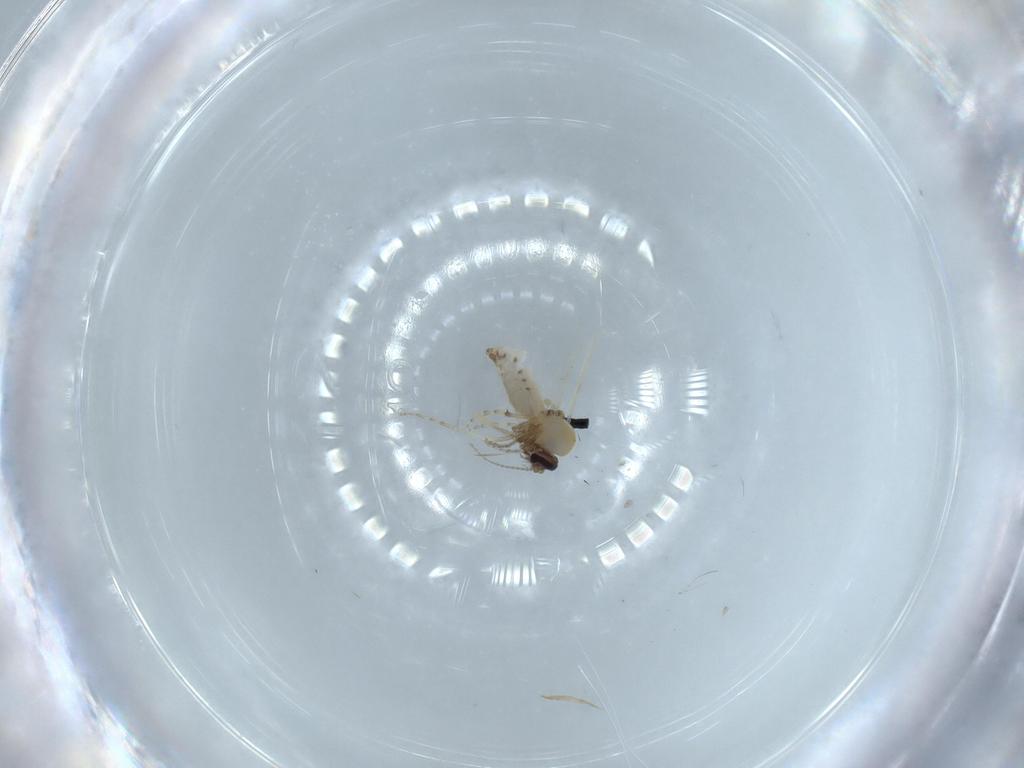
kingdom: Animalia
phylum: Arthropoda
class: Insecta
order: Diptera
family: Ceratopogonidae
